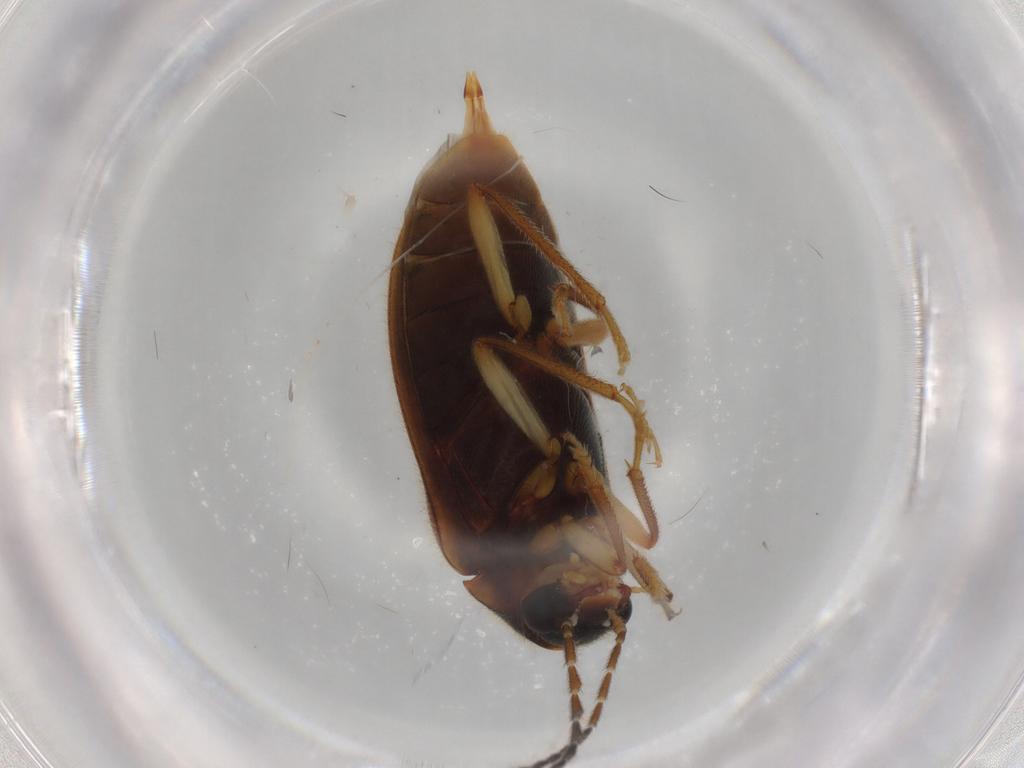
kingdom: Animalia
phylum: Arthropoda
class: Insecta
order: Coleoptera
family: Ptilodactylidae
